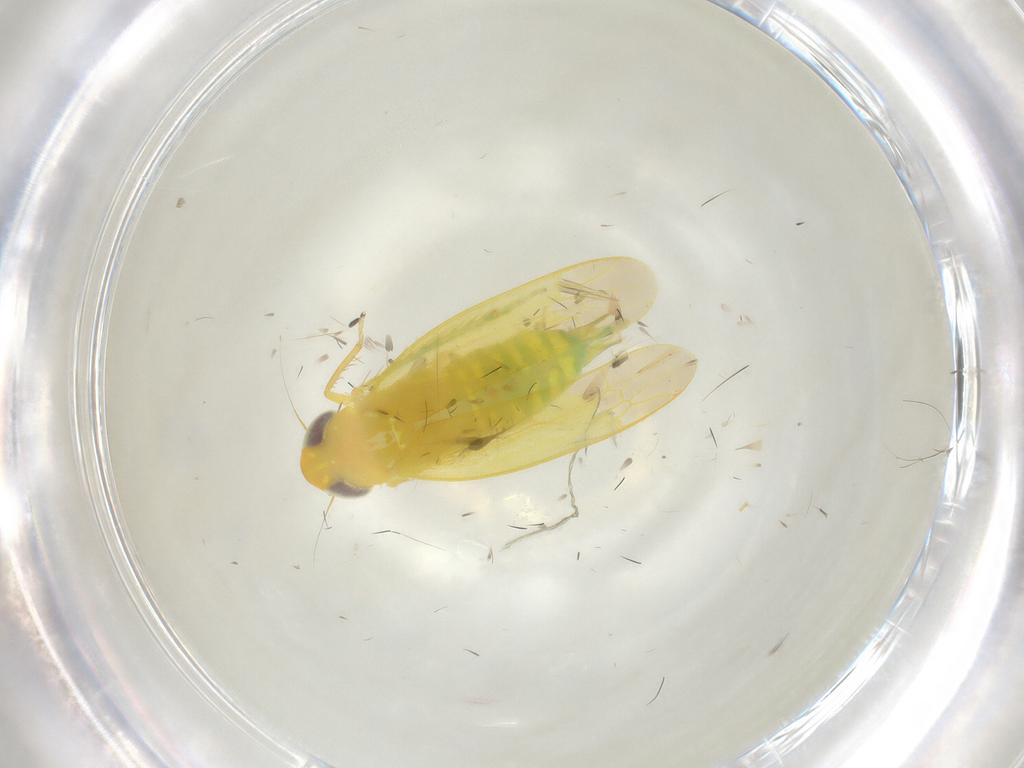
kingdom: Animalia
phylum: Arthropoda
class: Insecta
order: Hemiptera
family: Cicadellidae
